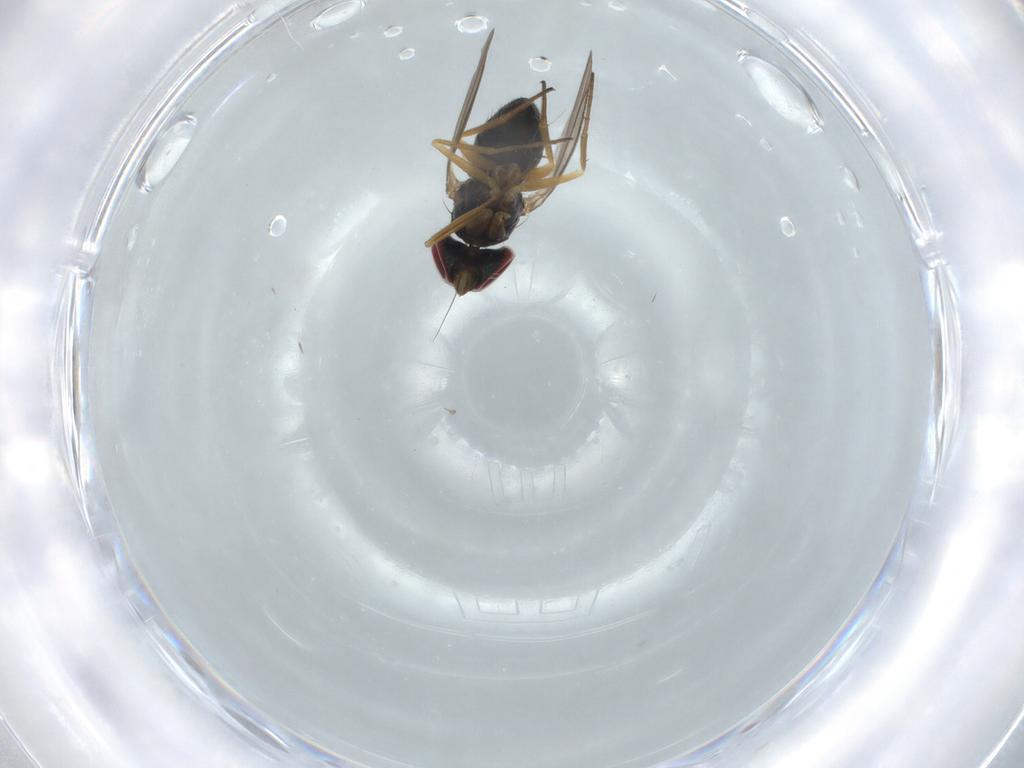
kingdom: Animalia
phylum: Arthropoda
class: Insecta
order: Diptera
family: Dolichopodidae
